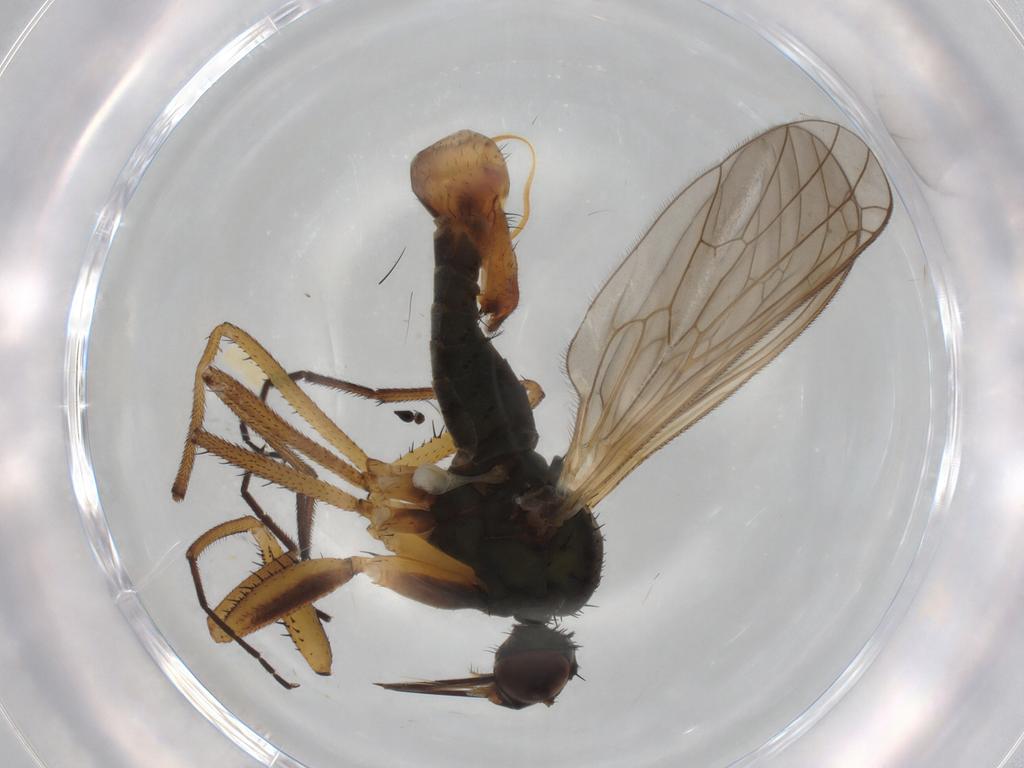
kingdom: Animalia
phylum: Arthropoda
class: Insecta
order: Diptera
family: Empididae
